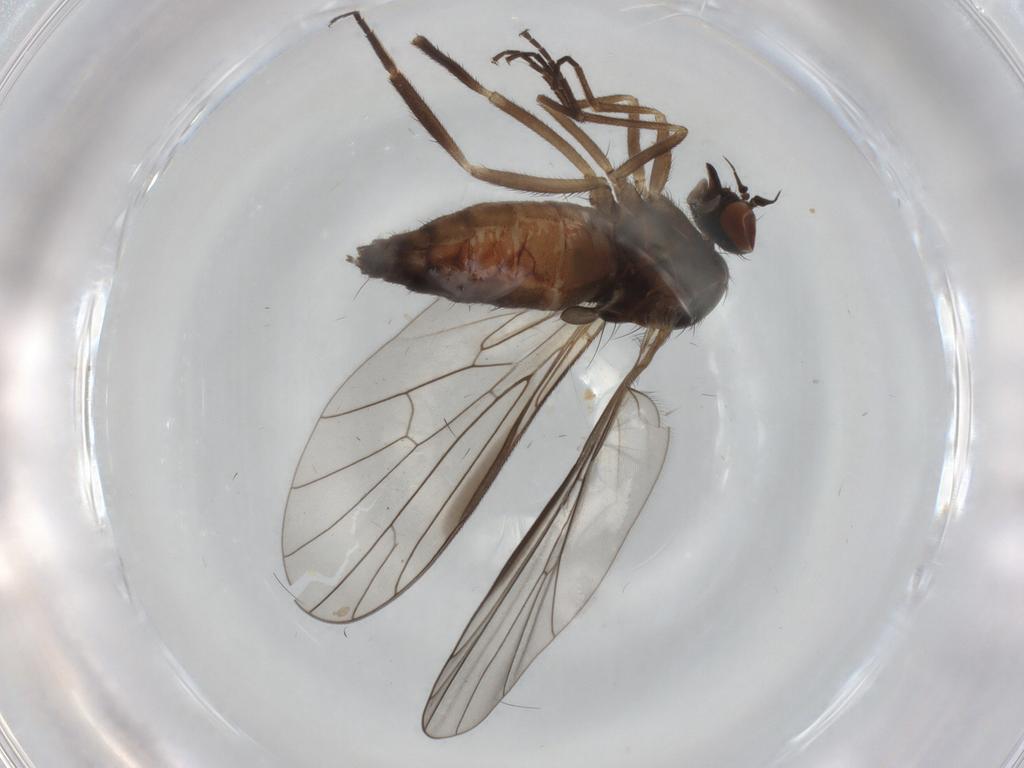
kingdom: Animalia
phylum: Arthropoda
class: Insecta
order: Diptera
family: Empididae
